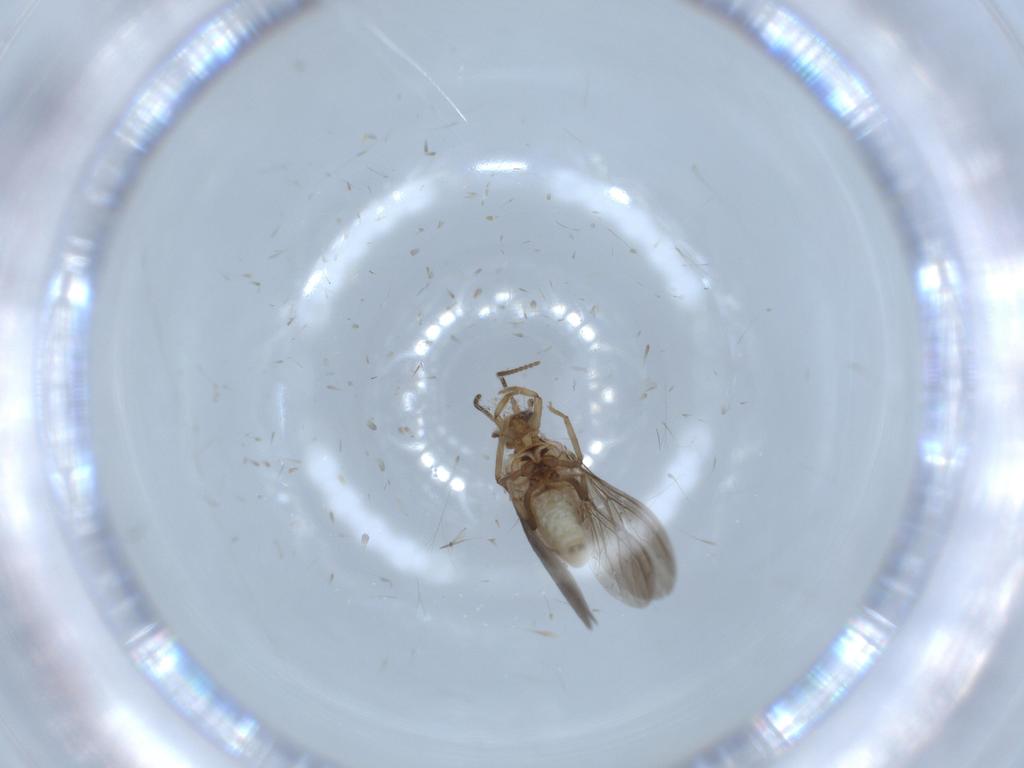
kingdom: Animalia
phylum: Arthropoda
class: Insecta
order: Neuroptera
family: Coniopterygidae
